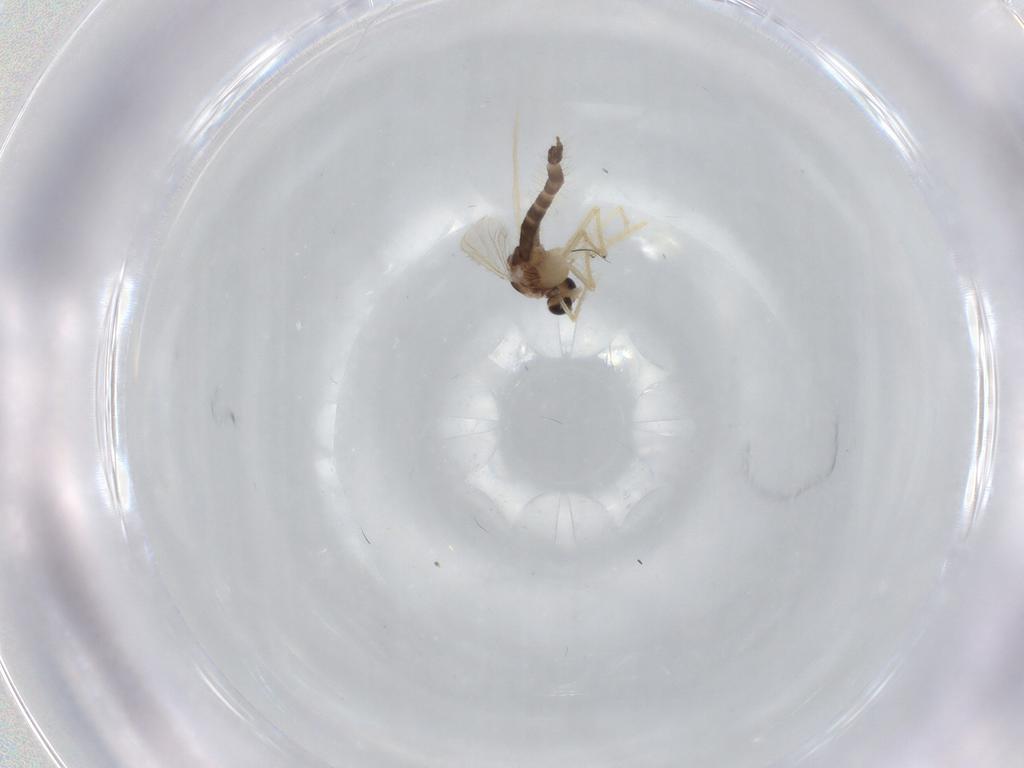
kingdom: Animalia
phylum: Arthropoda
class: Insecta
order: Diptera
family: Chironomidae
